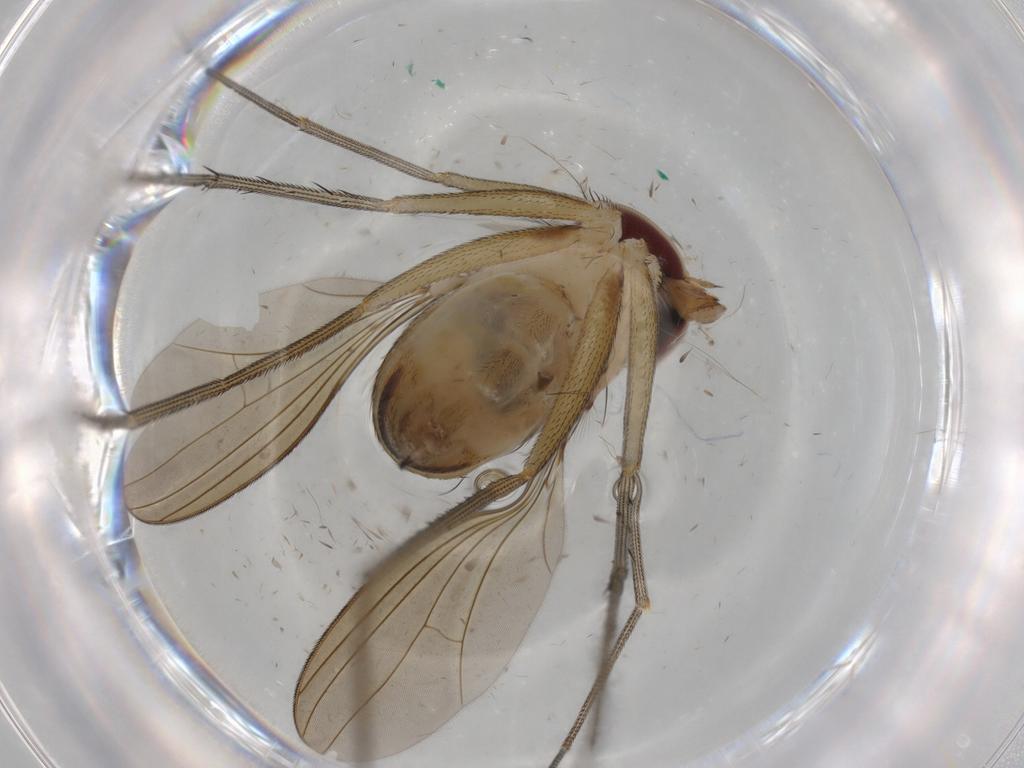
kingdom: Animalia
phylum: Arthropoda
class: Insecta
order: Diptera
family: Dolichopodidae
